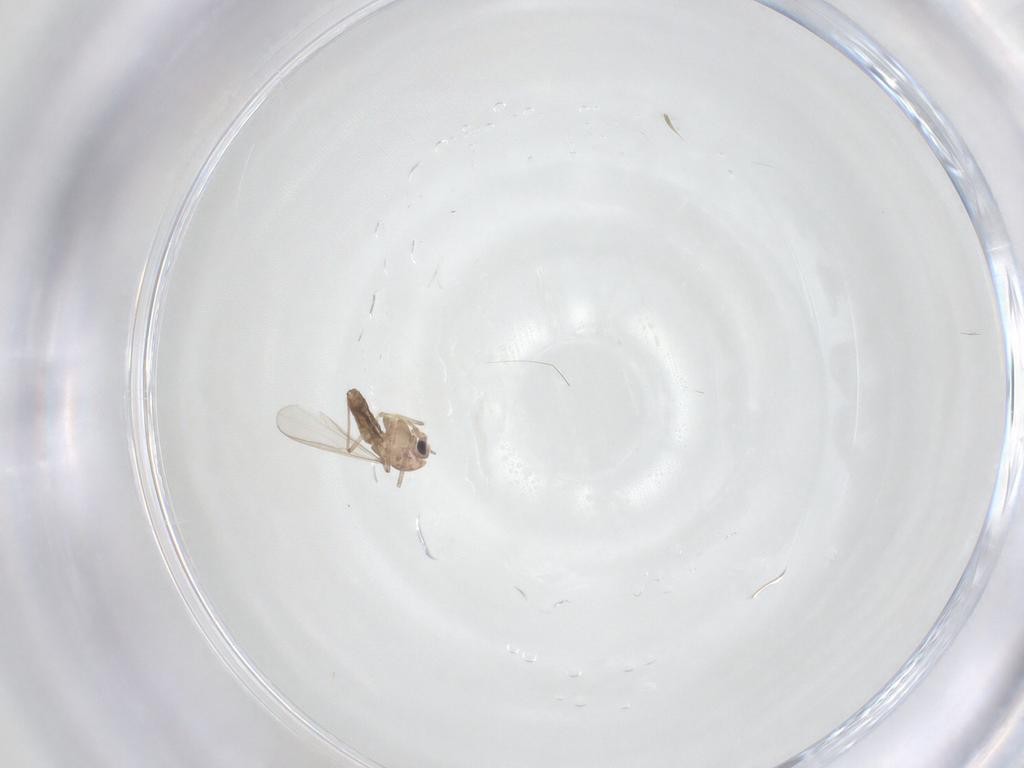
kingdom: Animalia
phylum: Arthropoda
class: Insecta
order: Diptera
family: Chironomidae
